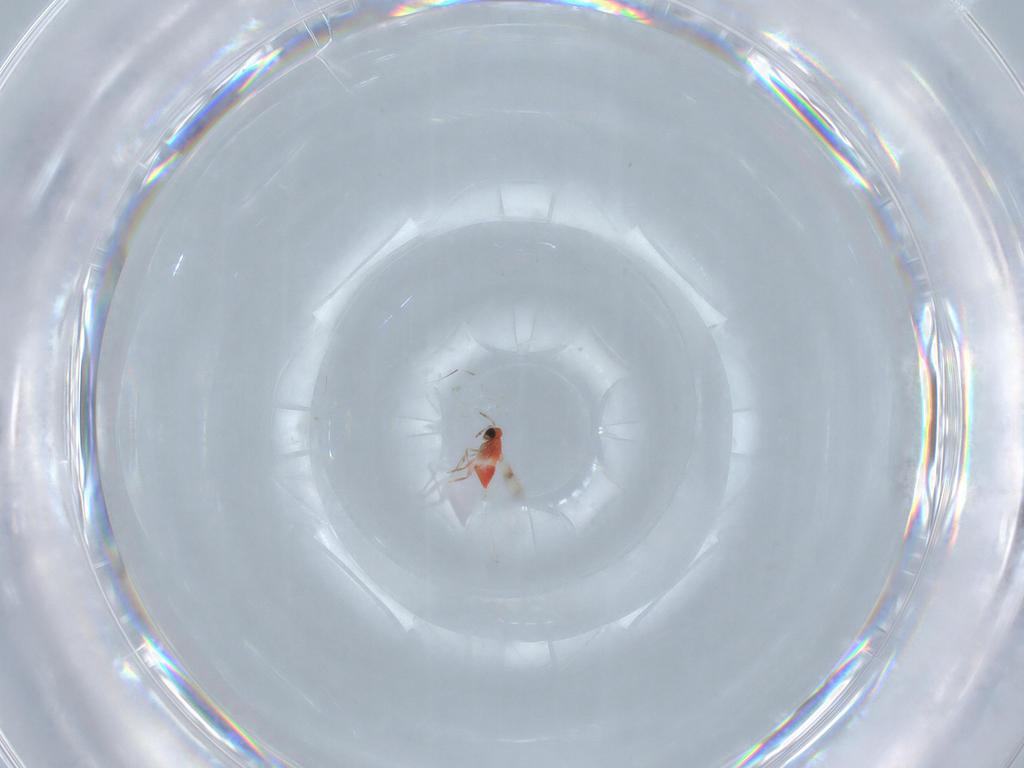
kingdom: Animalia
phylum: Arthropoda
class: Insecta
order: Hymenoptera
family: Trichogrammatidae
